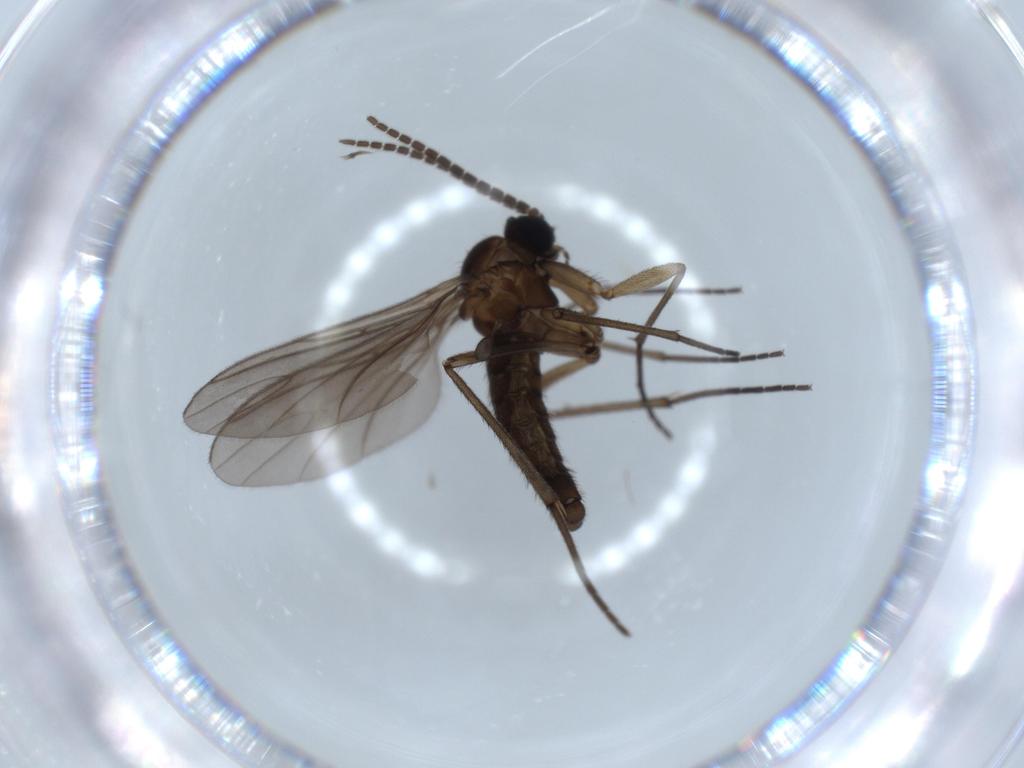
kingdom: Animalia
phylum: Arthropoda
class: Insecta
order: Diptera
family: Sciaridae
